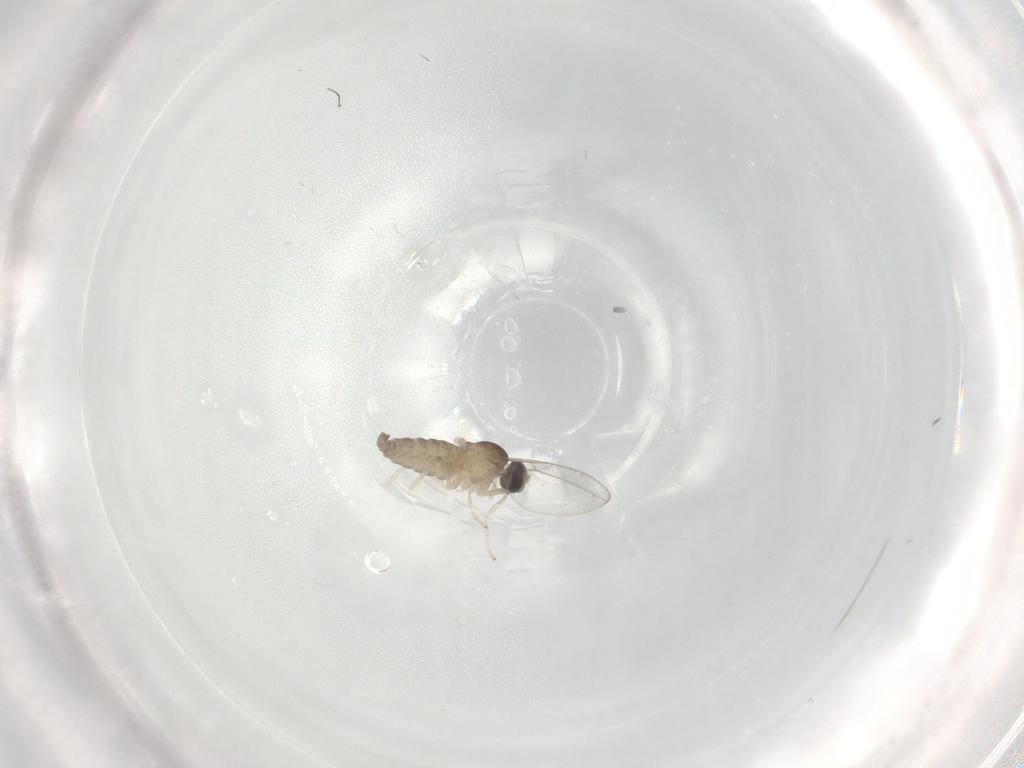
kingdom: Animalia
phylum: Arthropoda
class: Insecta
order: Diptera
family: Cecidomyiidae
